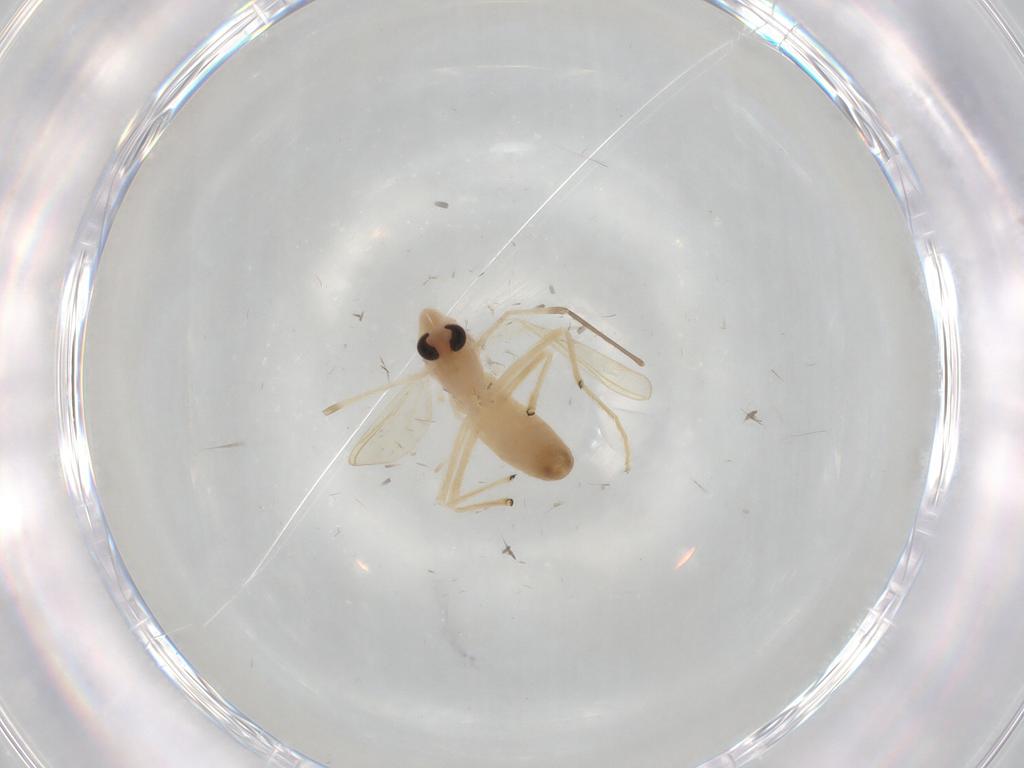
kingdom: Animalia
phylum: Arthropoda
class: Insecta
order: Diptera
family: Chironomidae
